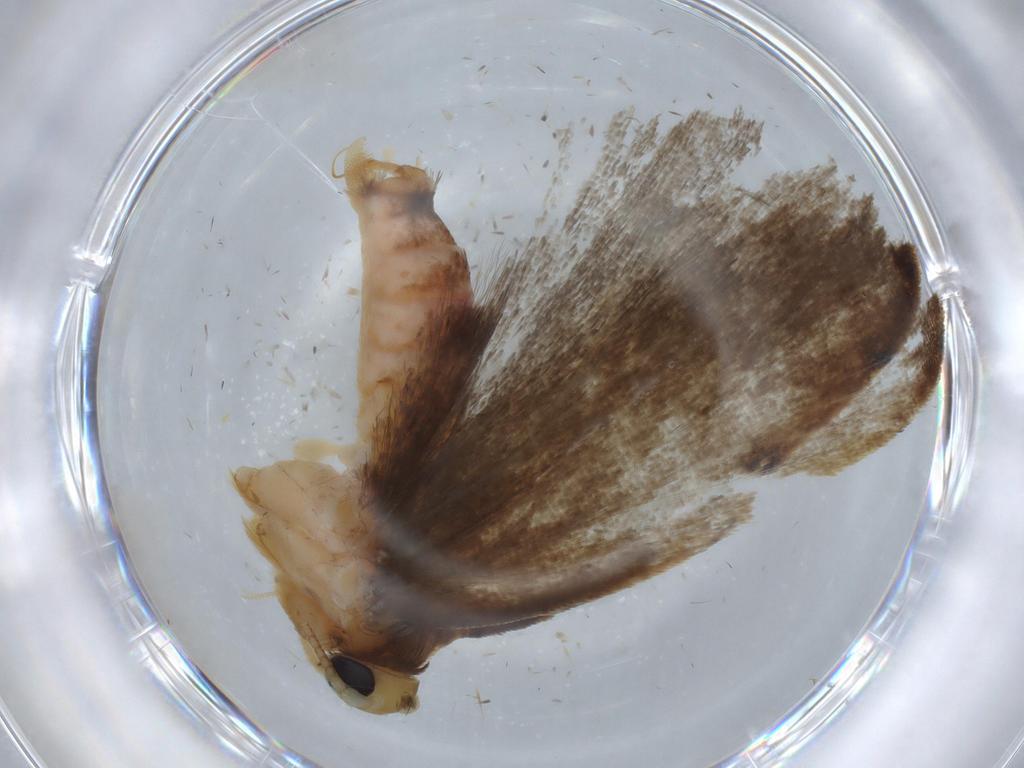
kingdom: Animalia
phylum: Arthropoda
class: Insecta
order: Lepidoptera
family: Depressariidae
